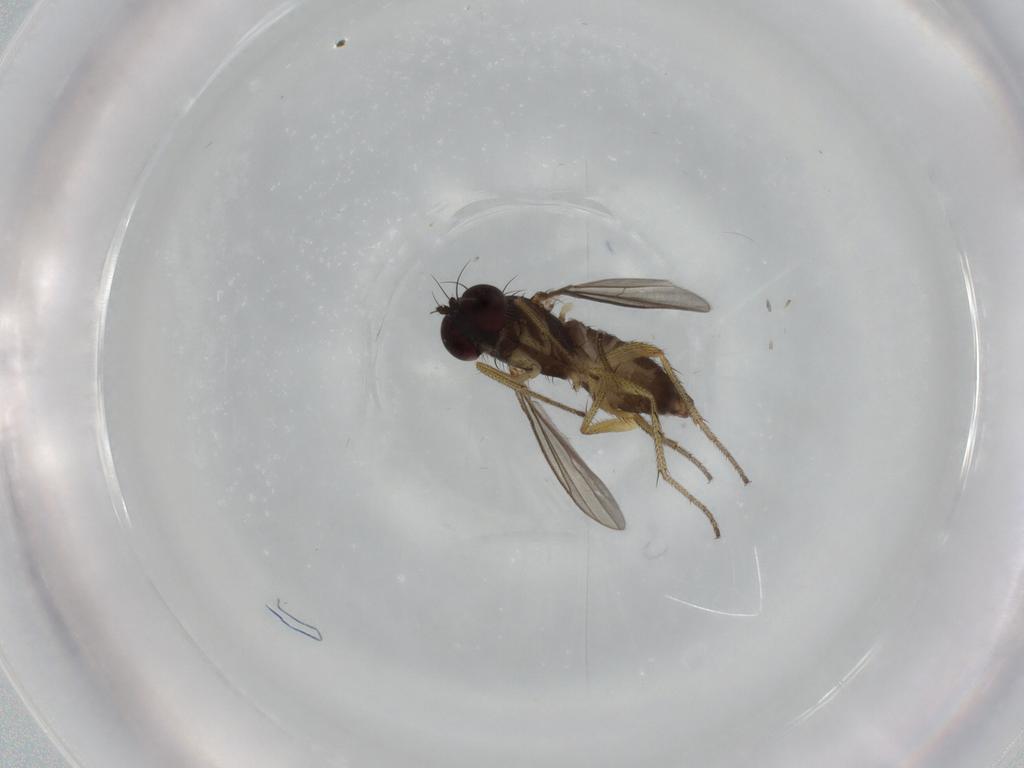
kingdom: Animalia
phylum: Arthropoda
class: Insecta
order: Diptera
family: Dolichopodidae
